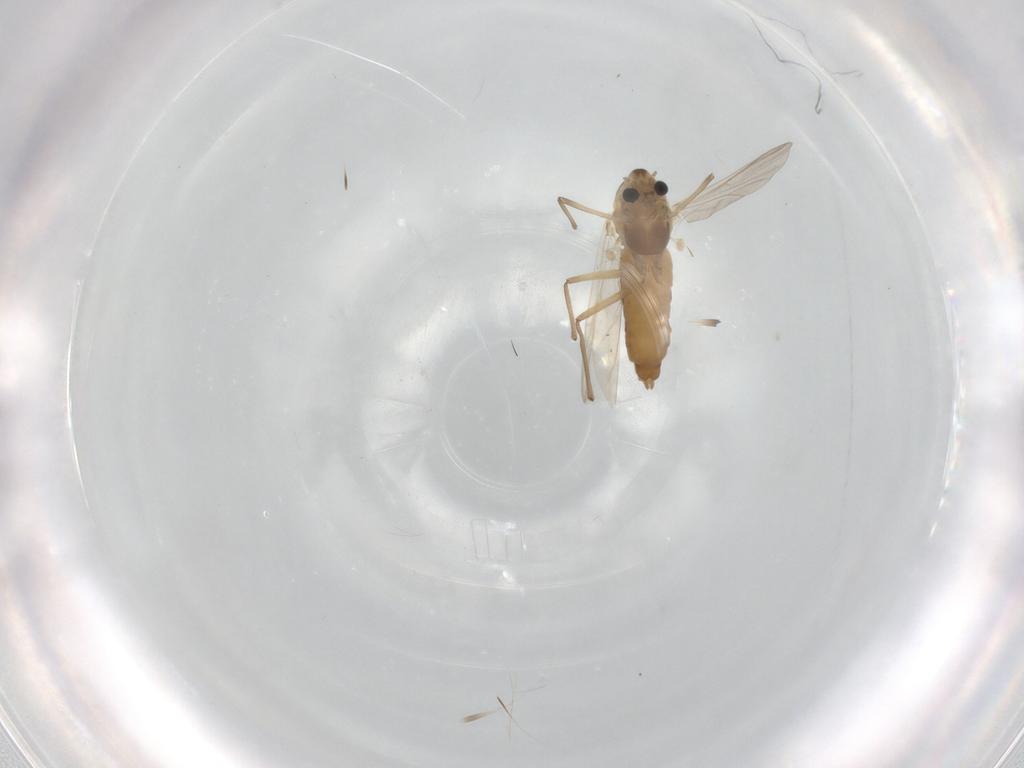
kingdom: Animalia
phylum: Arthropoda
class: Insecta
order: Diptera
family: Chironomidae
